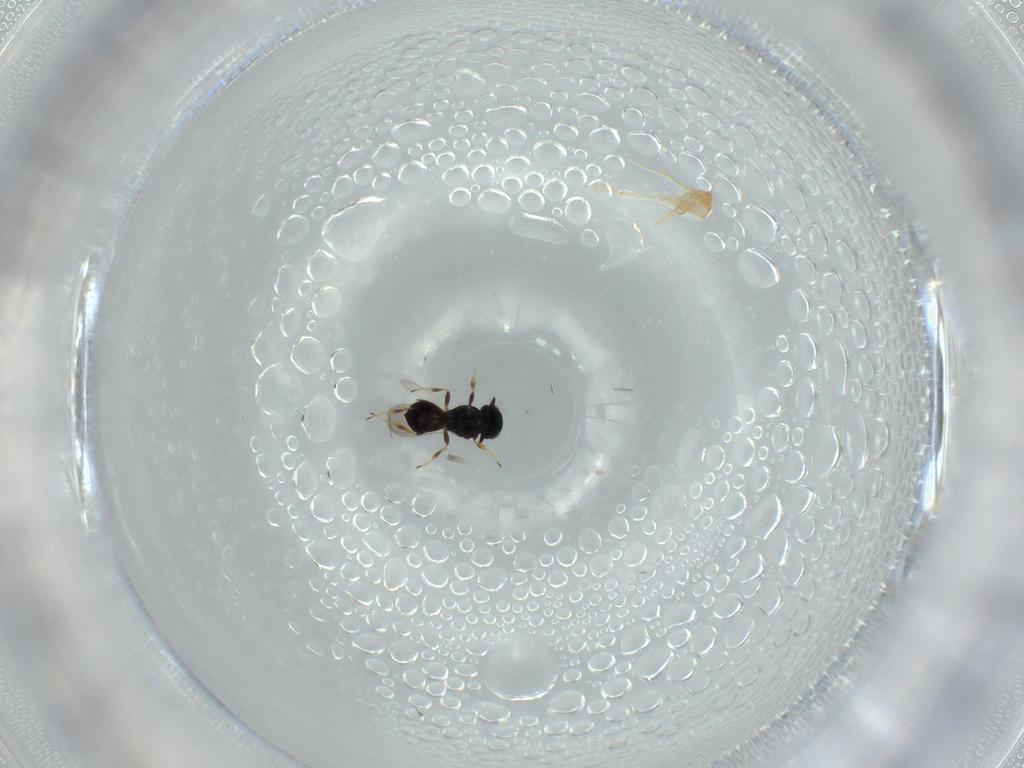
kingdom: Animalia
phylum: Arthropoda
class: Insecta
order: Hymenoptera
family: Scelionidae
